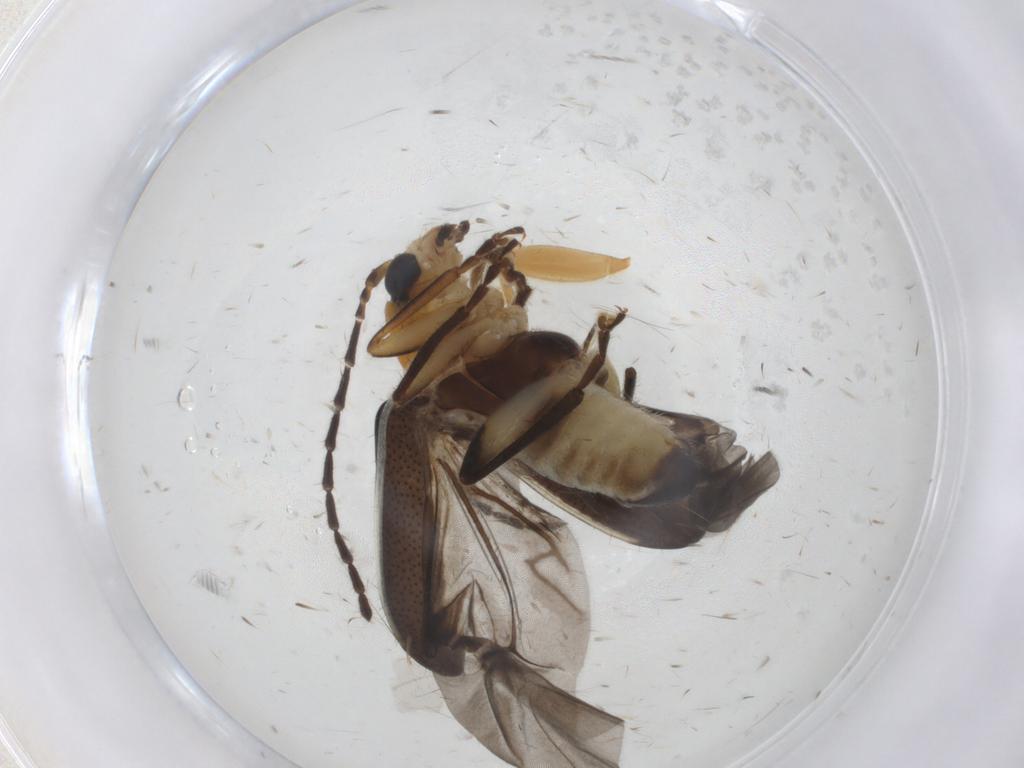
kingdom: Animalia
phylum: Arthropoda
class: Insecta
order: Coleoptera
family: Chrysomelidae
